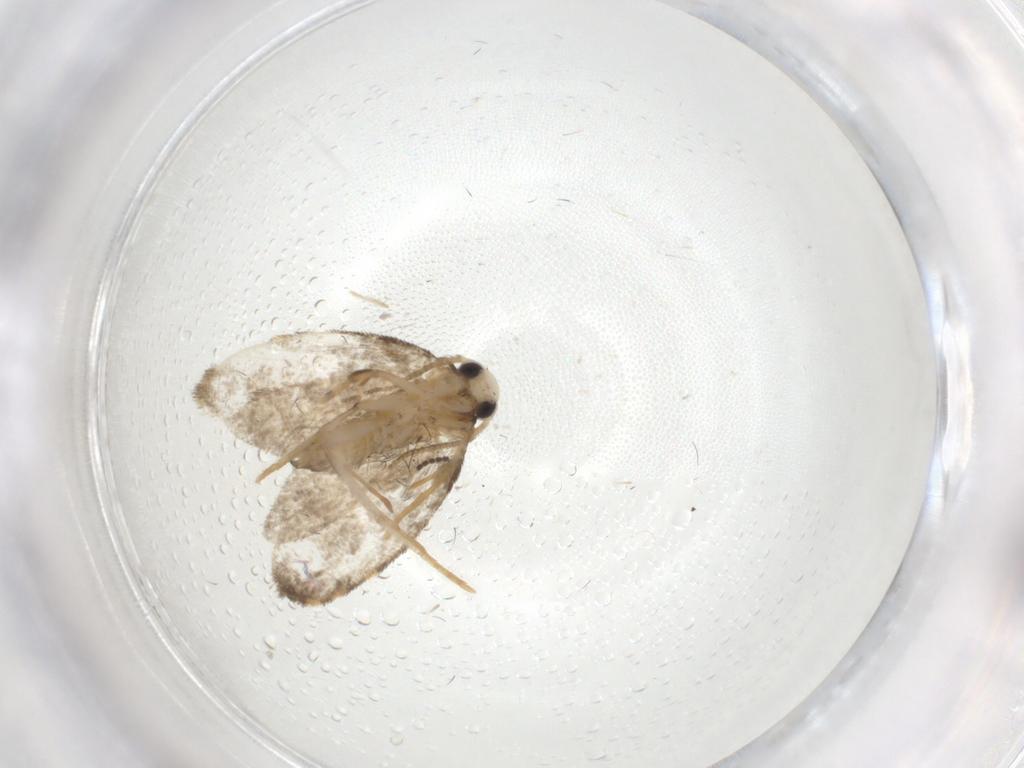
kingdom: Animalia
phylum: Arthropoda
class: Insecta
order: Lepidoptera
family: Psychidae
